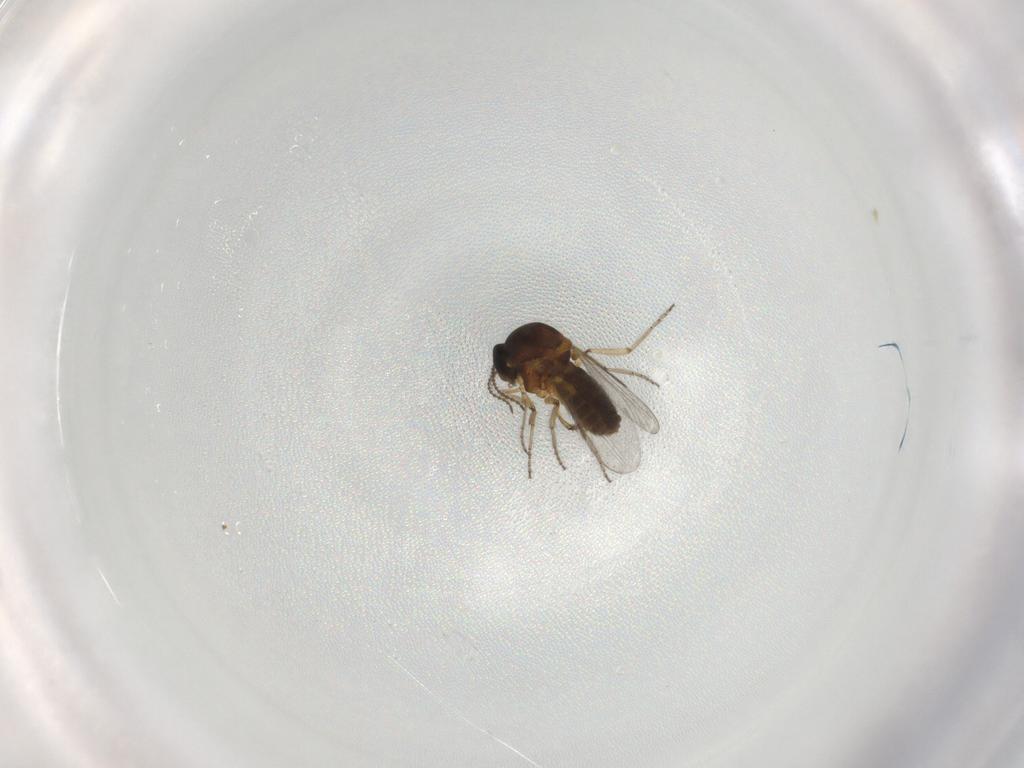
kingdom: Animalia
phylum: Arthropoda
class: Insecta
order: Diptera
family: Ceratopogonidae
